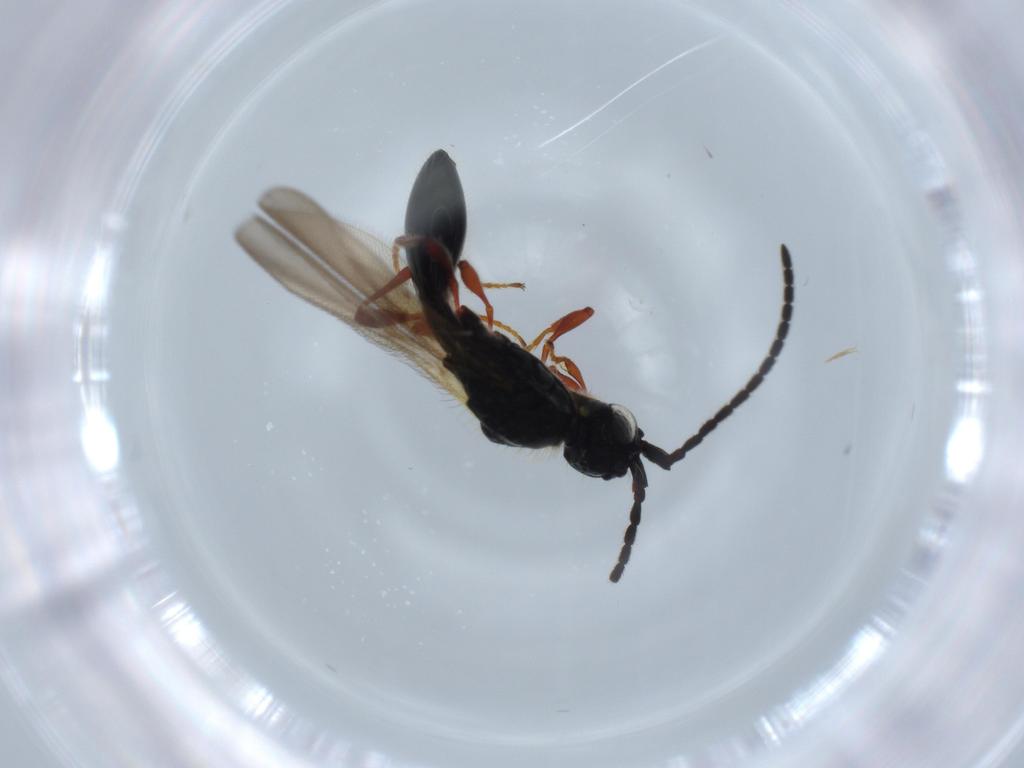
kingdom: Animalia
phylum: Arthropoda
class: Insecta
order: Hymenoptera
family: Diapriidae
